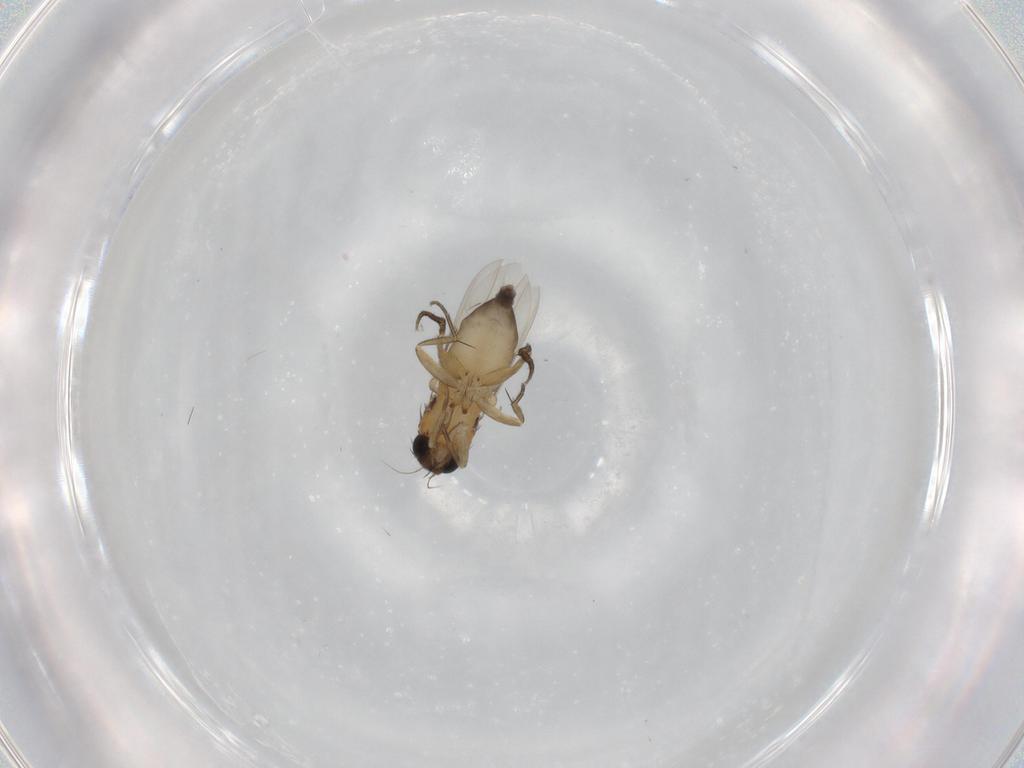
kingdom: Animalia
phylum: Arthropoda
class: Insecta
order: Diptera
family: Phoridae
